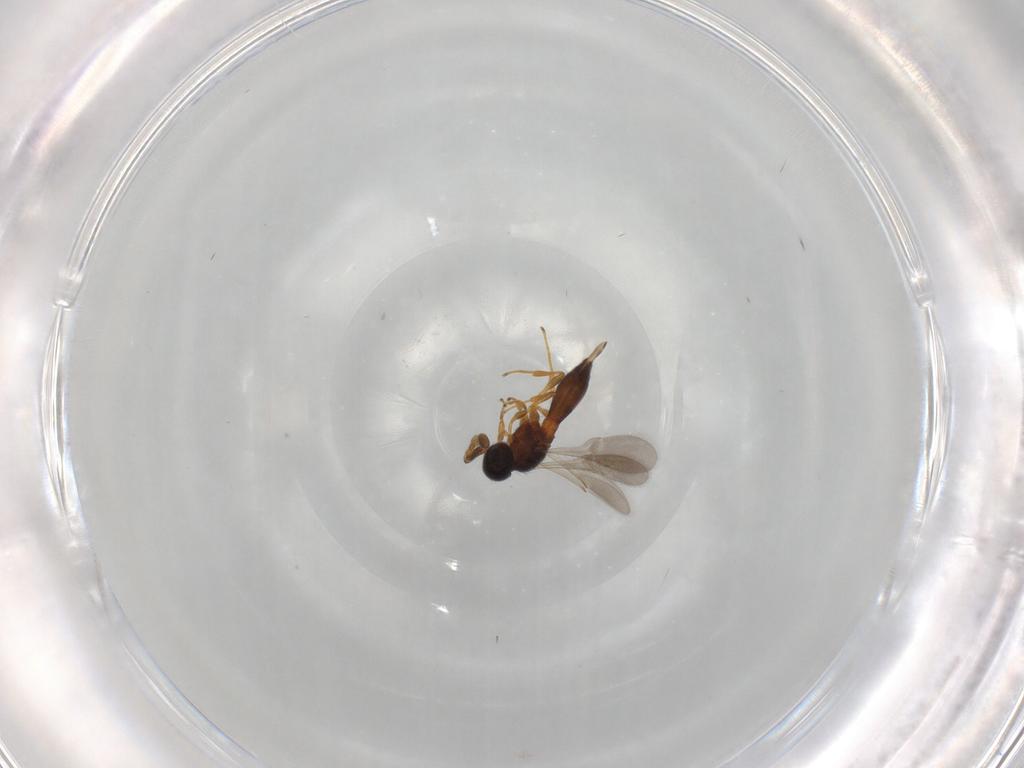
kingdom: Animalia
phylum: Arthropoda
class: Insecta
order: Hymenoptera
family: Scelionidae
